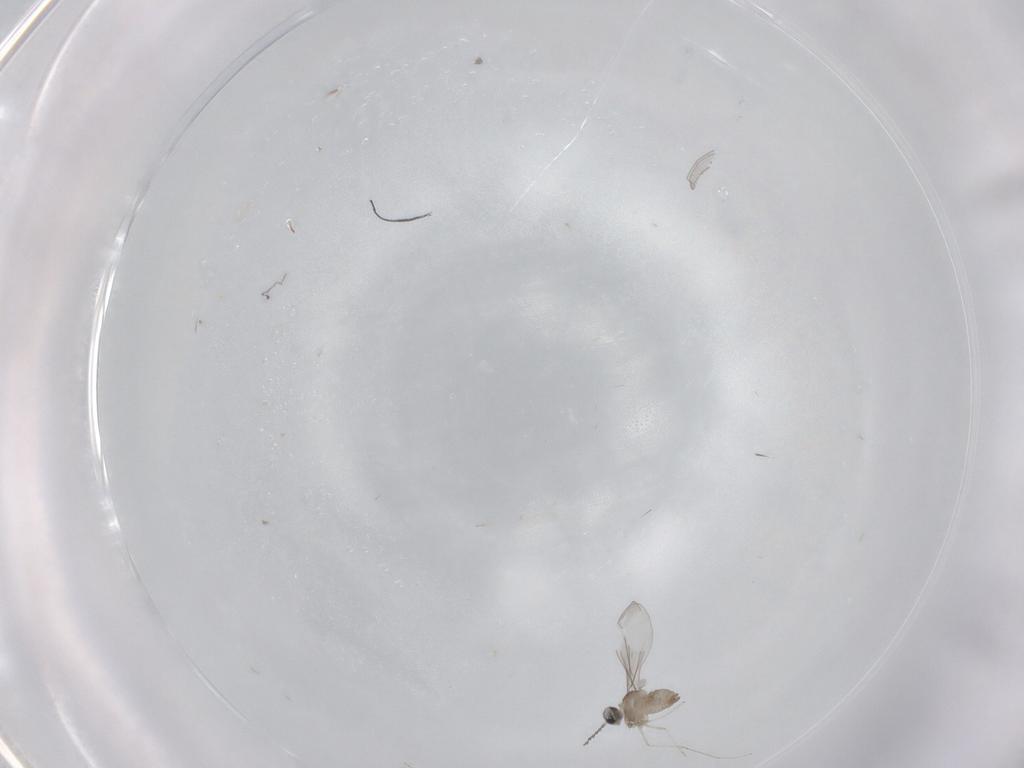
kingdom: Animalia
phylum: Arthropoda
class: Insecta
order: Diptera
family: Cecidomyiidae
